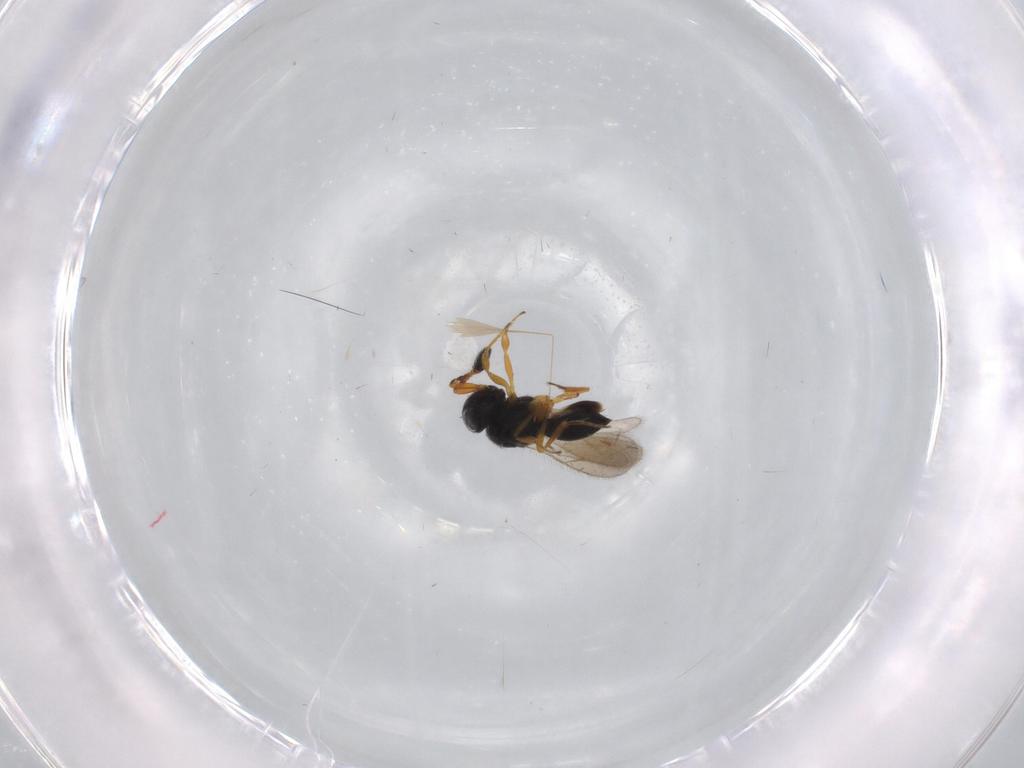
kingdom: Animalia
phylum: Arthropoda
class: Insecta
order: Hymenoptera
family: Scelionidae
